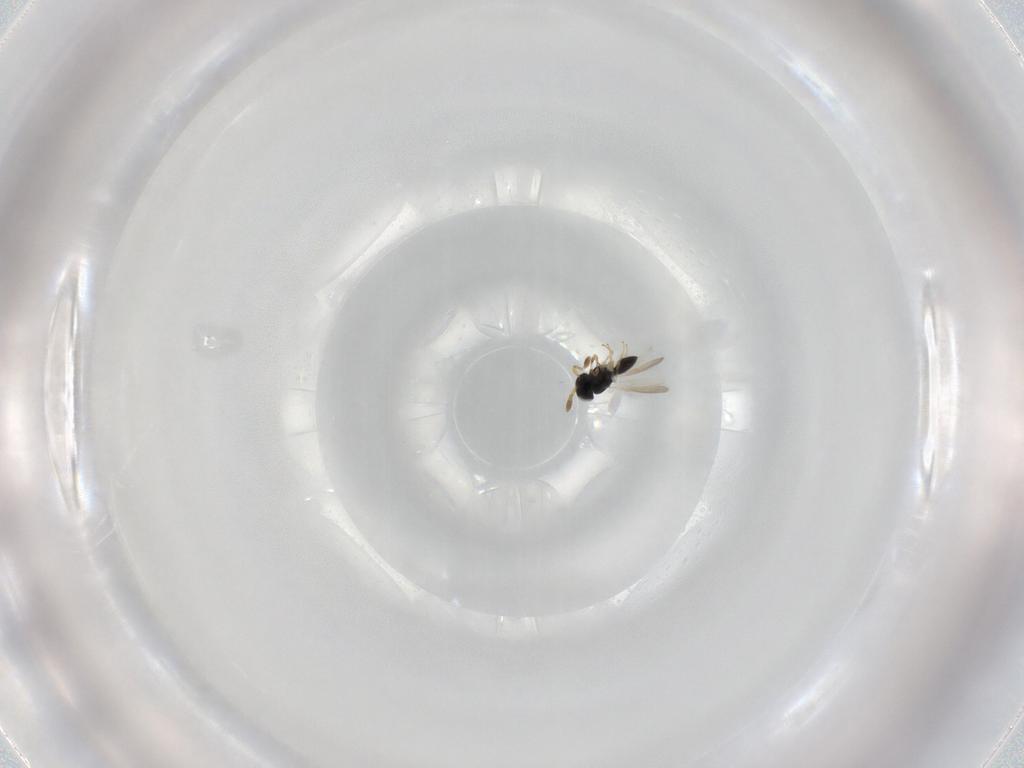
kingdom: Animalia
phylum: Arthropoda
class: Insecta
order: Hymenoptera
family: Braconidae
